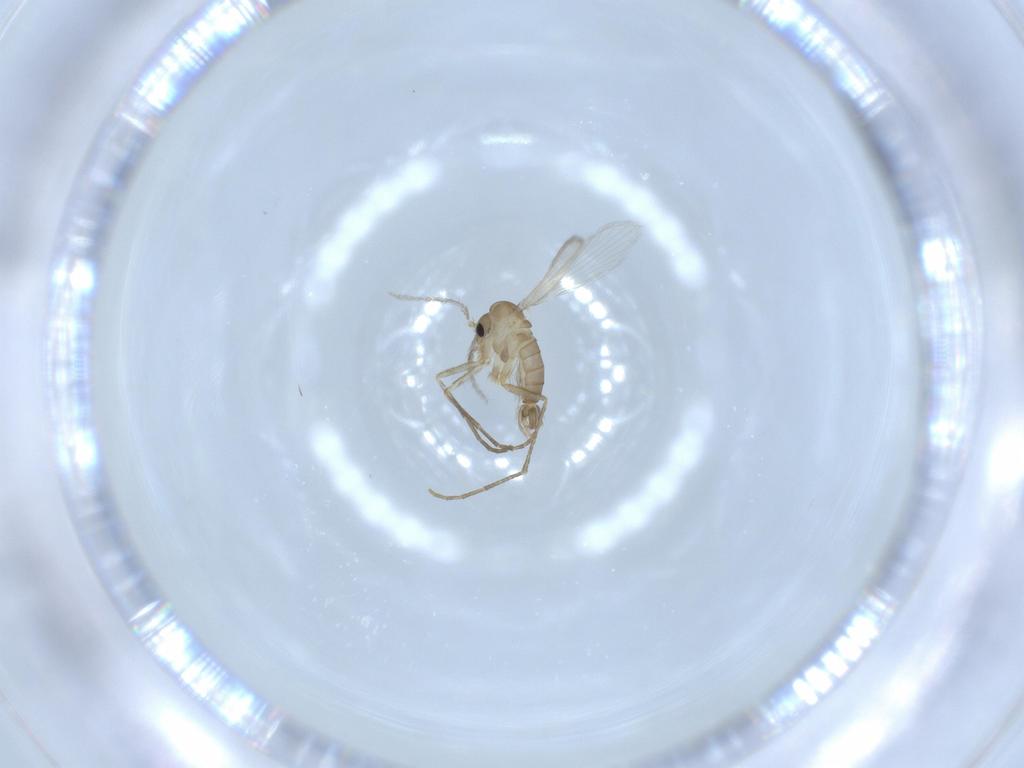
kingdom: Animalia
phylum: Arthropoda
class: Insecta
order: Diptera
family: Psychodidae
